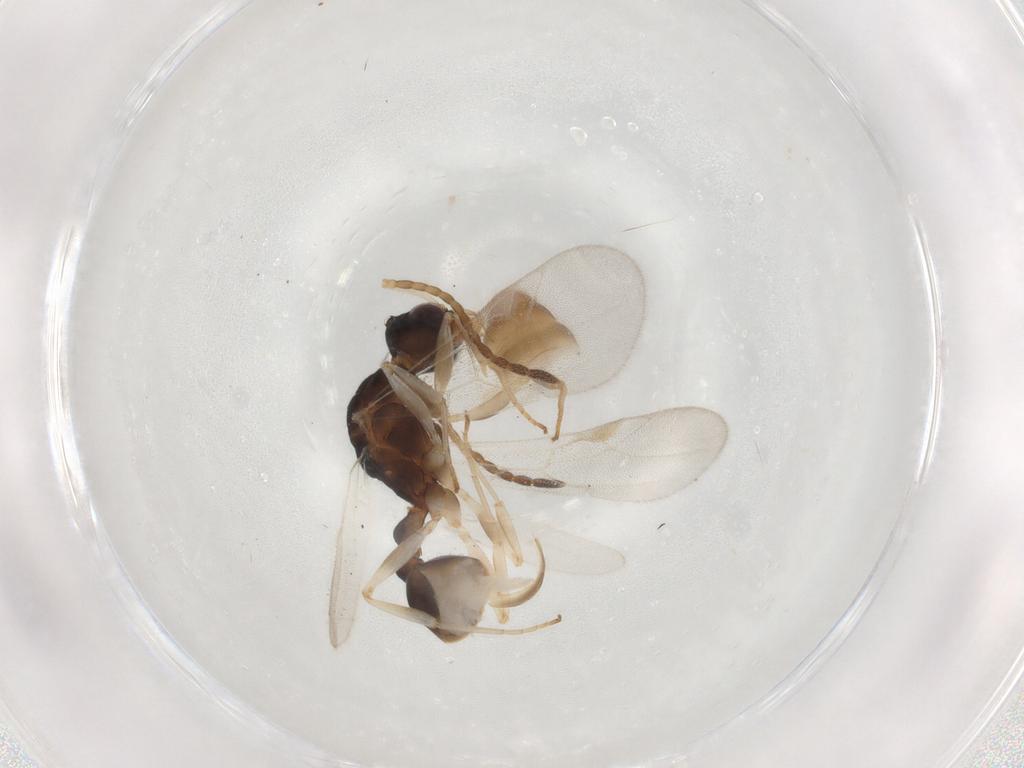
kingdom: Animalia
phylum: Arthropoda
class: Insecta
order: Hymenoptera
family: Formicidae
